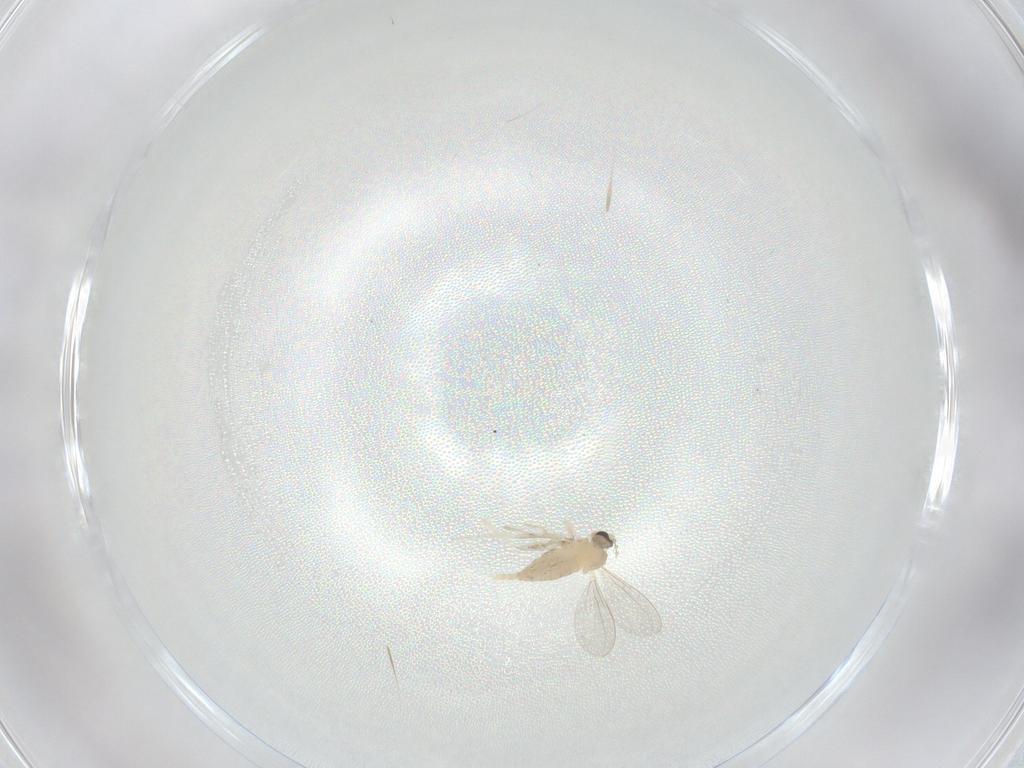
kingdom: Animalia
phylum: Arthropoda
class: Insecta
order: Diptera
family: Cecidomyiidae
